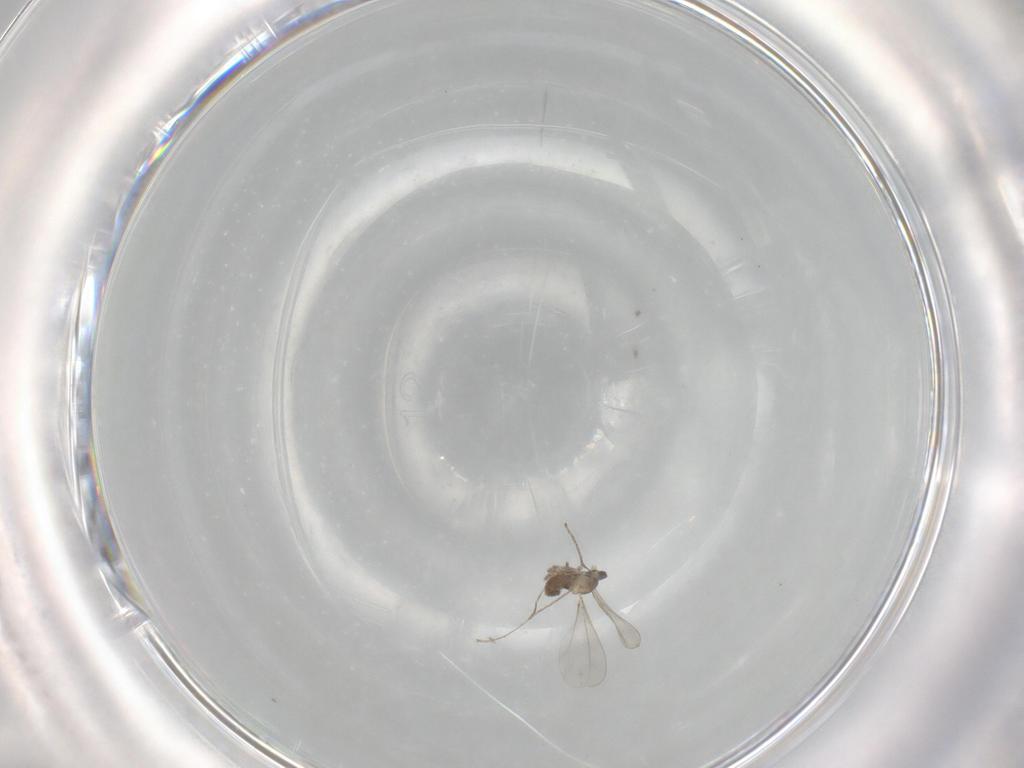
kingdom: Animalia
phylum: Arthropoda
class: Insecta
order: Diptera
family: Cecidomyiidae
